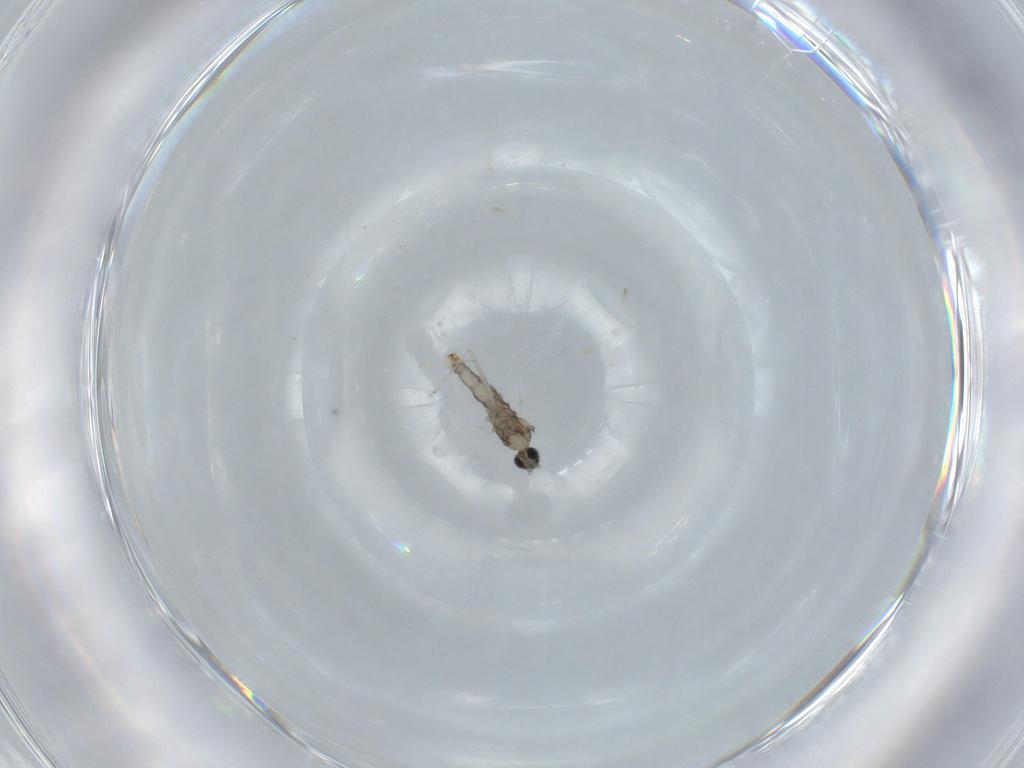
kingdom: Animalia
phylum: Arthropoda
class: Insecta
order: Diptera
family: Cecidomyiidae
